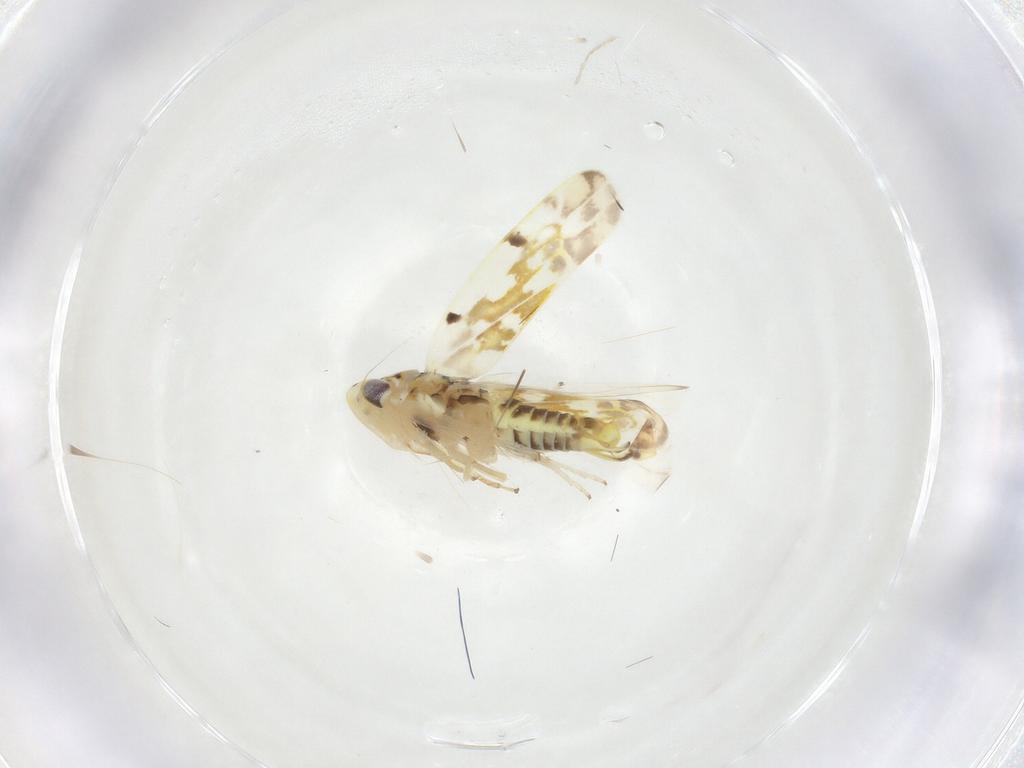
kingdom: Animalia
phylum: Arthropoda
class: Insecta
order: Hemiptera
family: Cicadellidae
